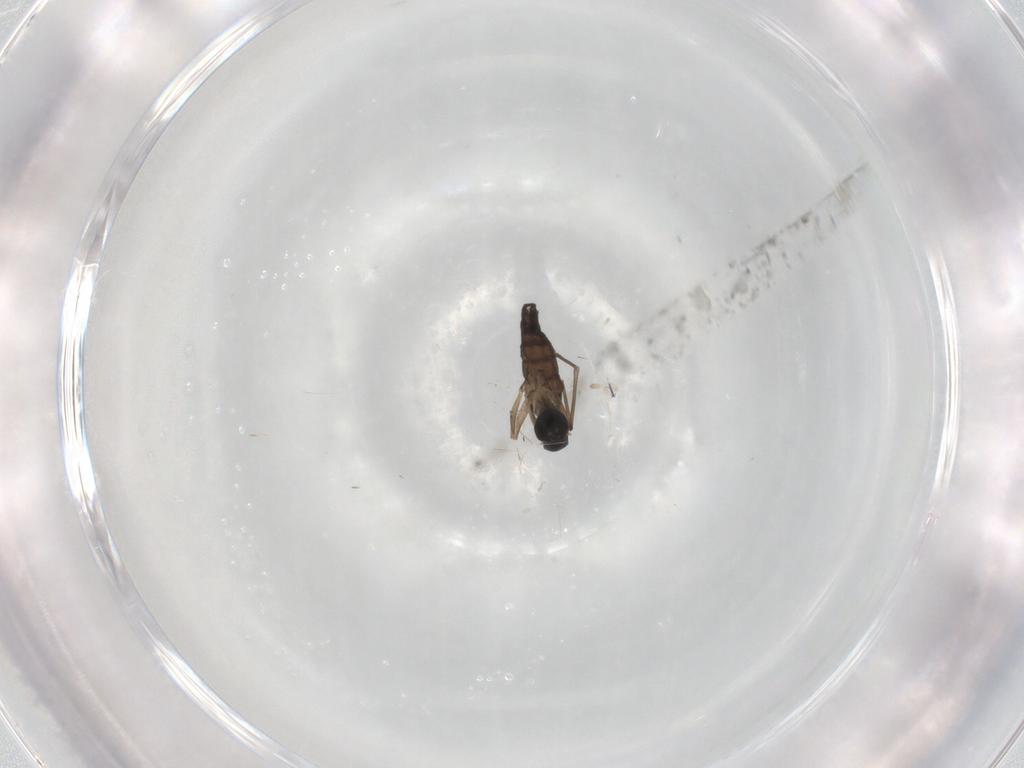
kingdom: Animalia
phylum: Arthropoda
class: Insecta
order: Diptera
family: Sciaridae
